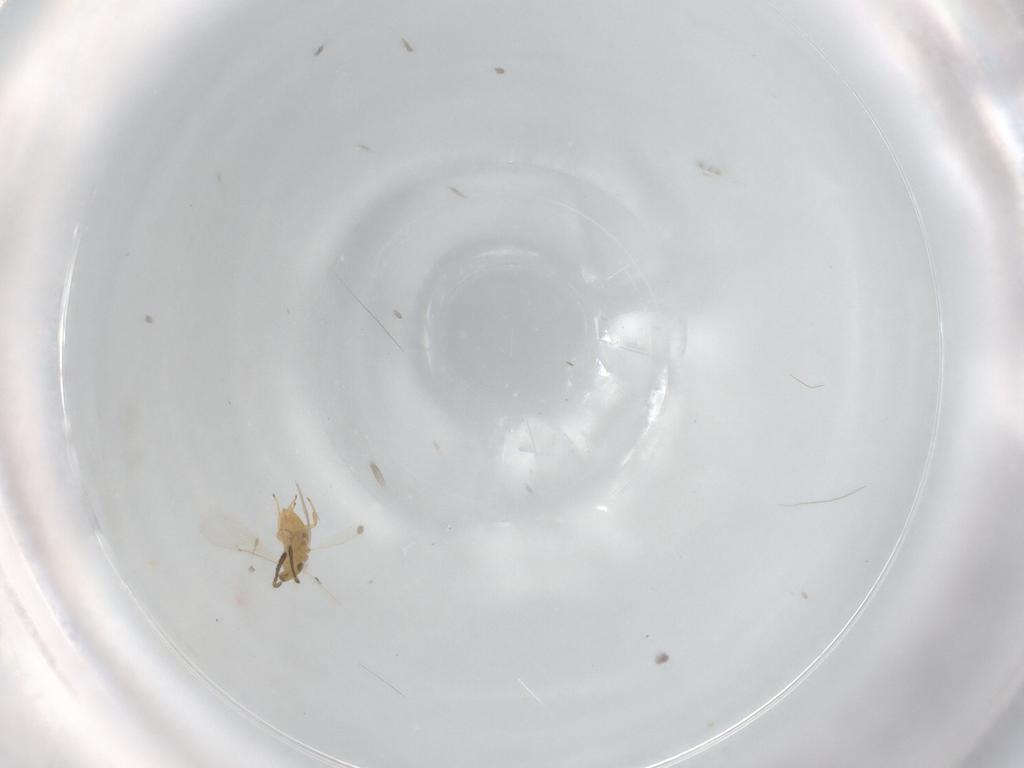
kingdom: Animalia
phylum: Arthropoda
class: Insecta
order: Hymenoptera
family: Encyrtidae
